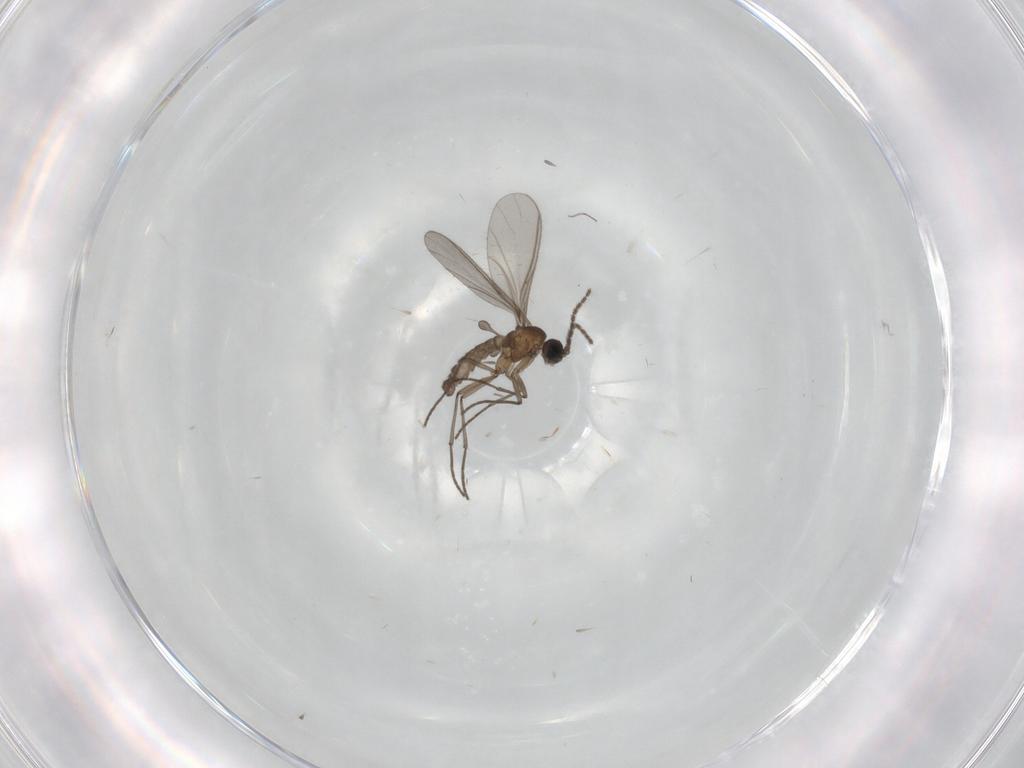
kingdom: Animalia
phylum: Arthropoda
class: Insecta
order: Diptera
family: Sciaridae
